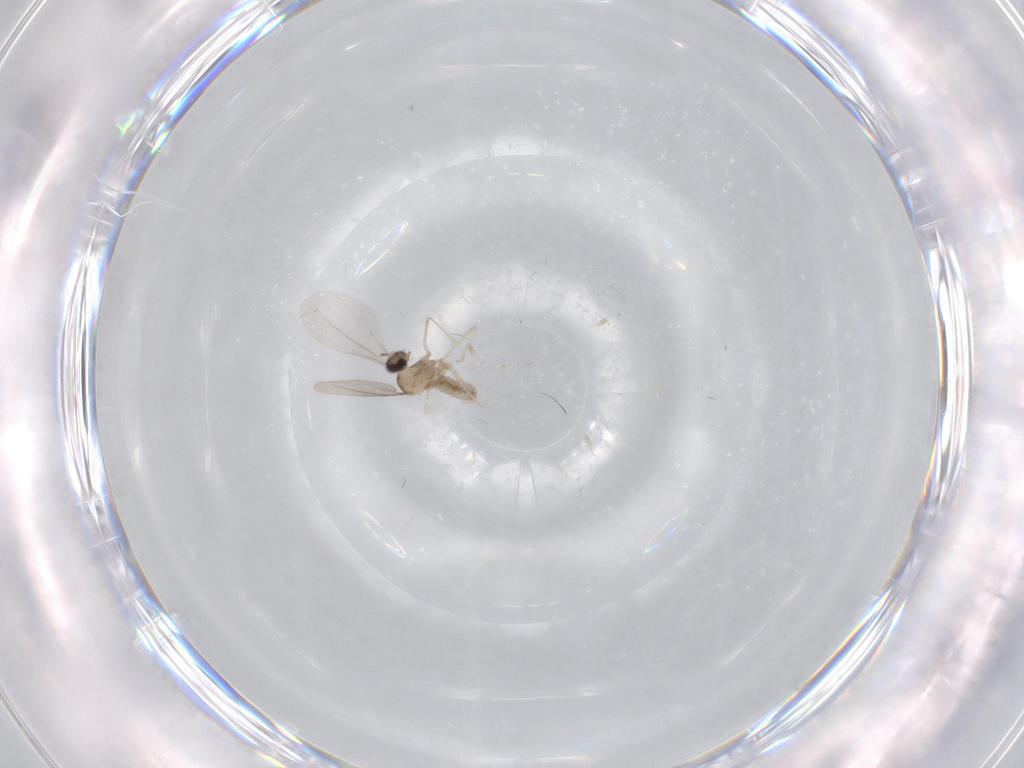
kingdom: Animalia
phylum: Arthropoda
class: Insecta
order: Diptera
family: Cecidomyiidae
